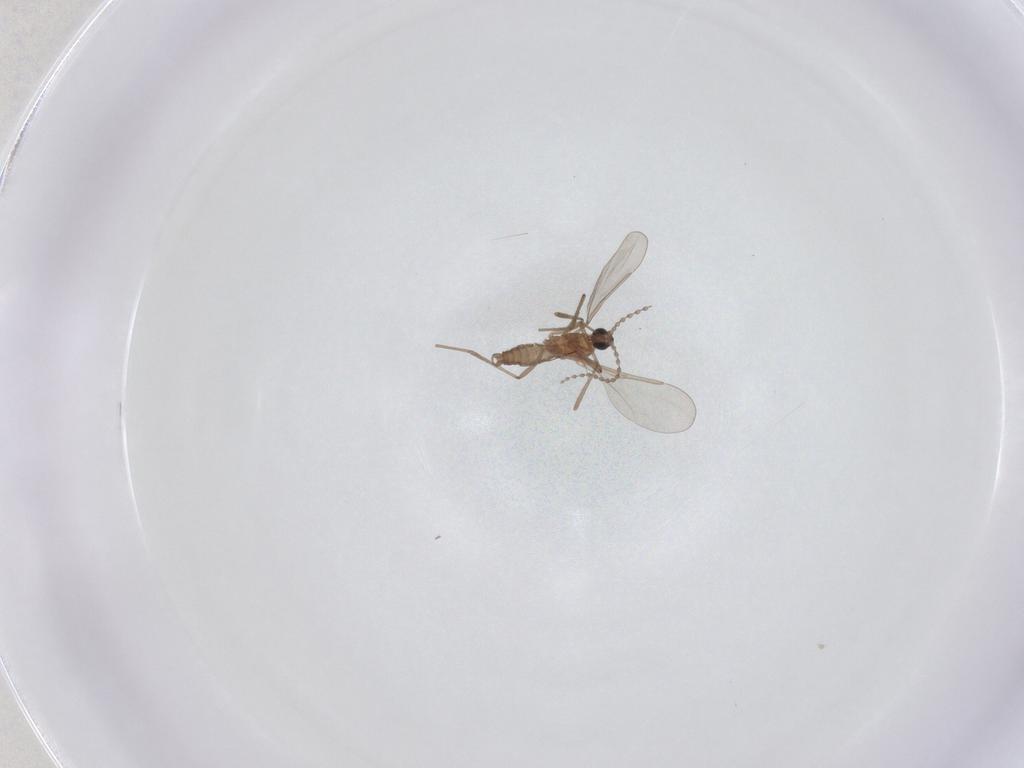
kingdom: Animalia
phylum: Arthropoda
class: Insecta
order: Diptera
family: Cecidomyiidae
